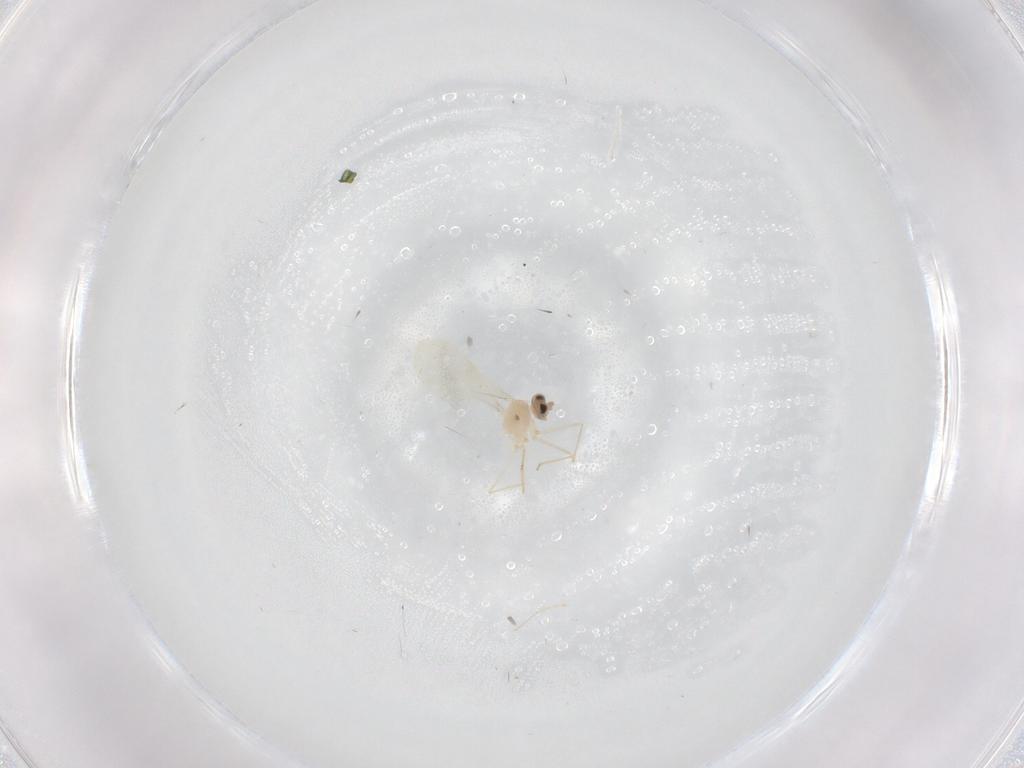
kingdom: Animalia
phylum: Arthropoda
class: Insecta
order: Diptera
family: Cecidomyiidae
